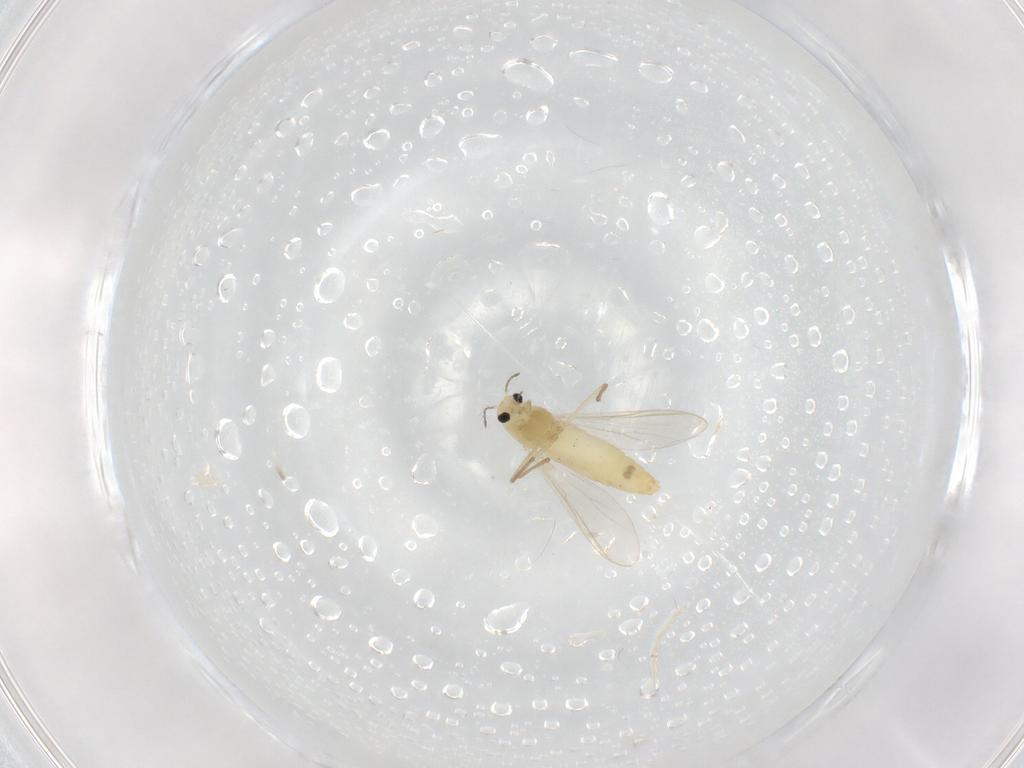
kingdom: Animalia
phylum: Arthropoda
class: Insecta
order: Diptera
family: Chironomidae
